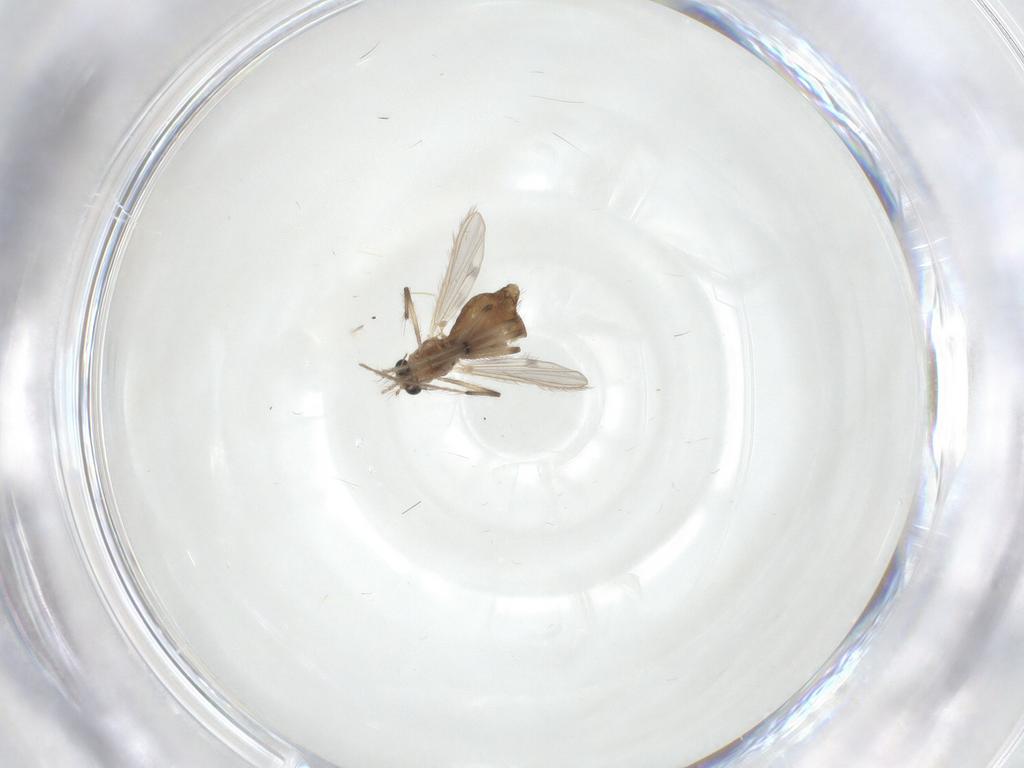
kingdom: Animalia
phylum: Arthropoda
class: Insecta
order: Diptera
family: Chironomidae
